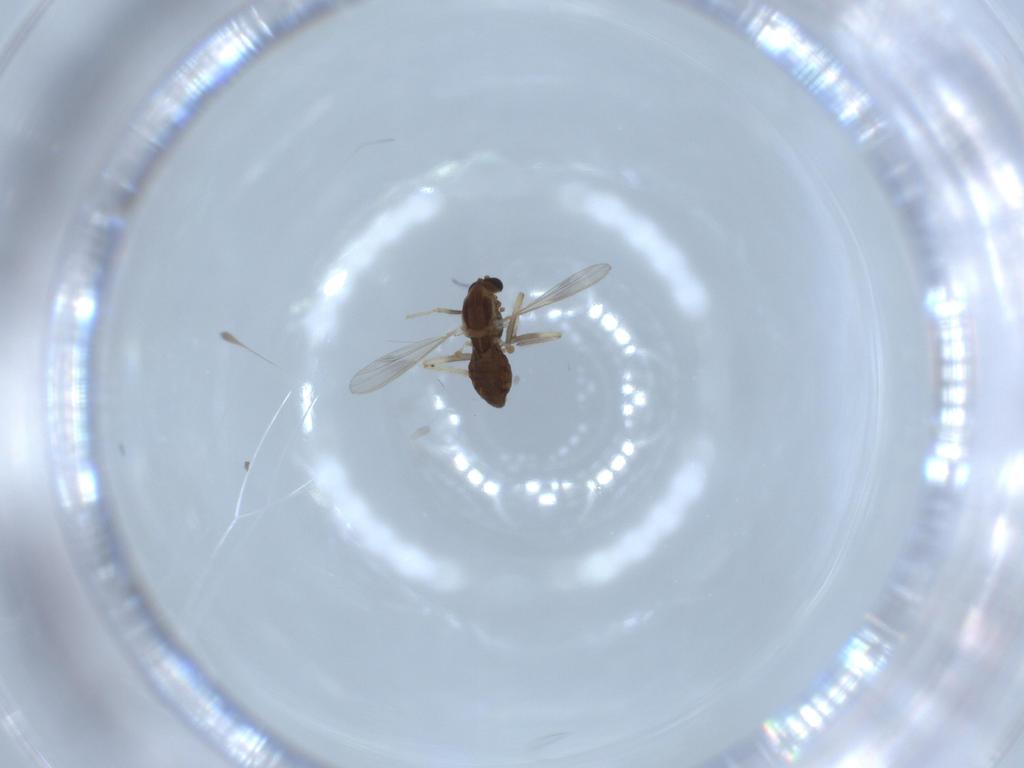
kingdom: Animalia
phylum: Arthropoda
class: Insecta
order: Diptera
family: Chironomidae
